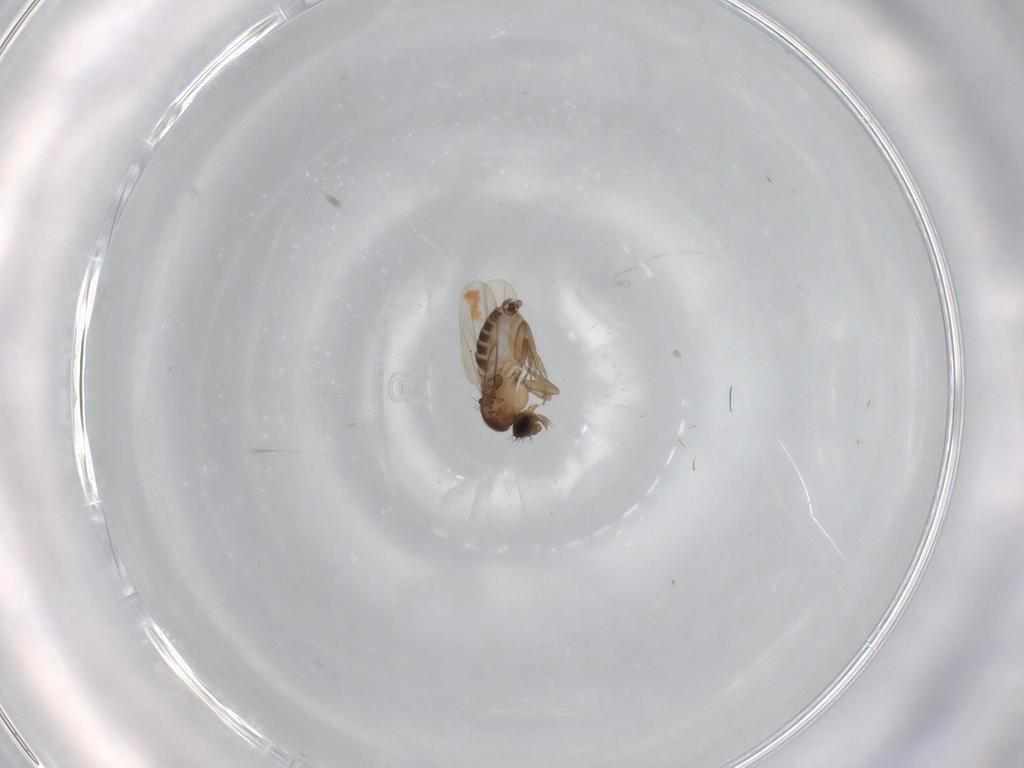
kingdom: Animalia
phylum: Arthropoda
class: Insecta
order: Diptera
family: Phoridae
